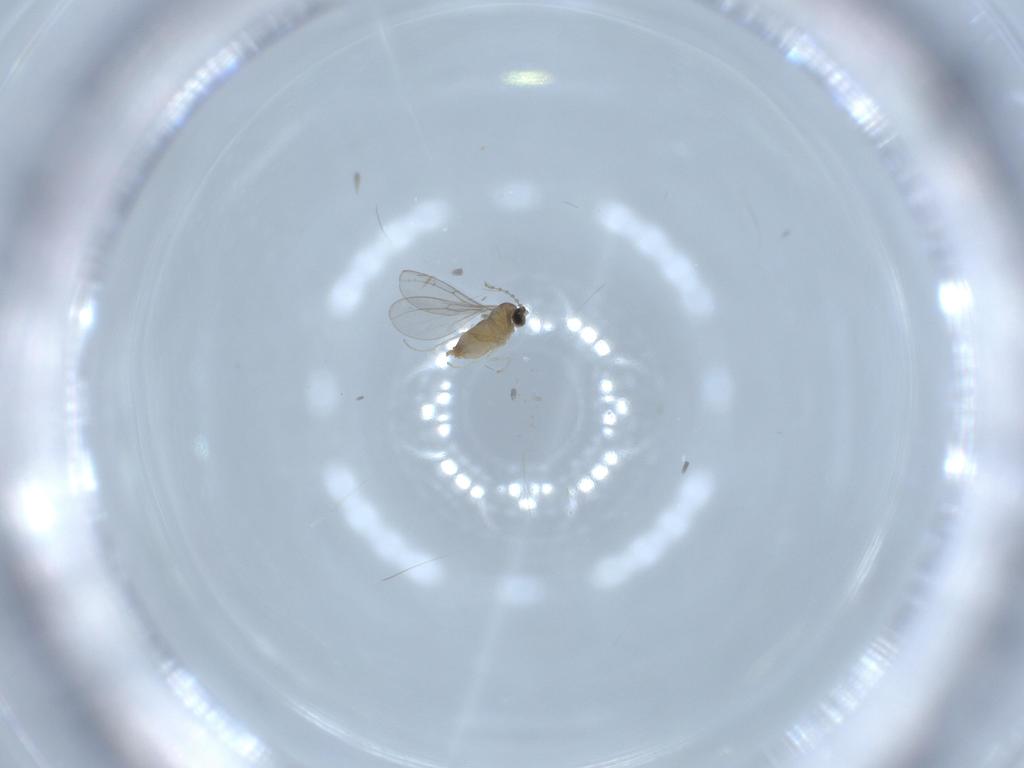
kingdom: Animalia
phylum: Arthropoda
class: Insecta
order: Diptera
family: Cecidomyiidae
